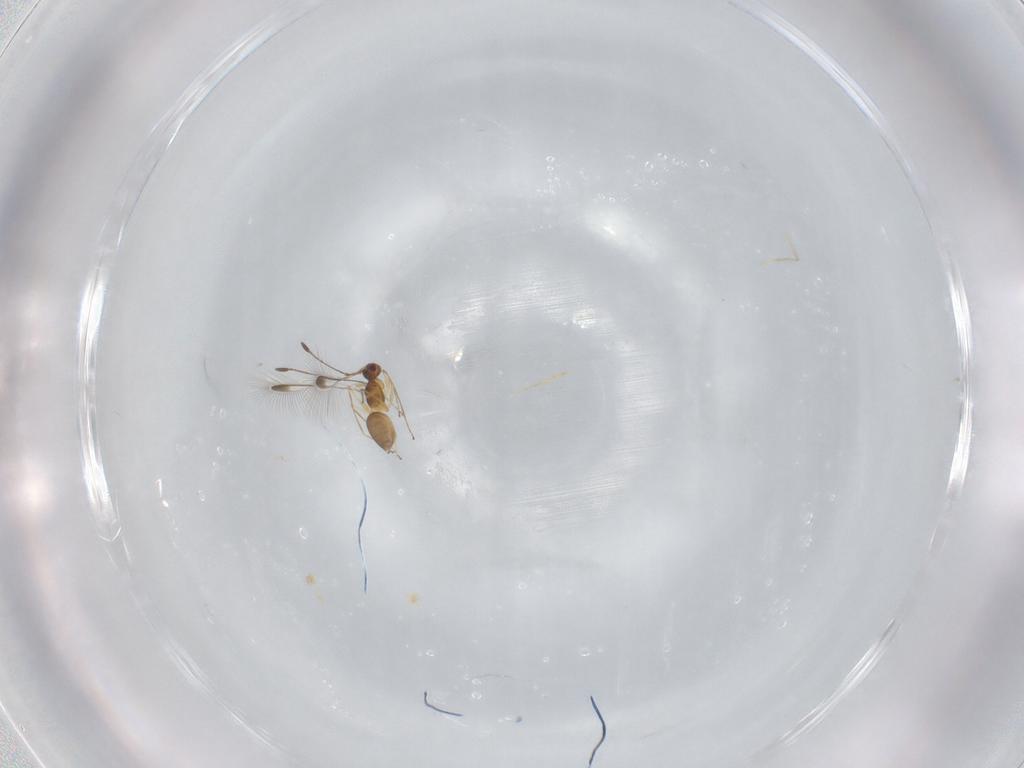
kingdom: Animalia
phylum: Arthropoda
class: Insecta
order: Hymenoptera
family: Mymaridae
